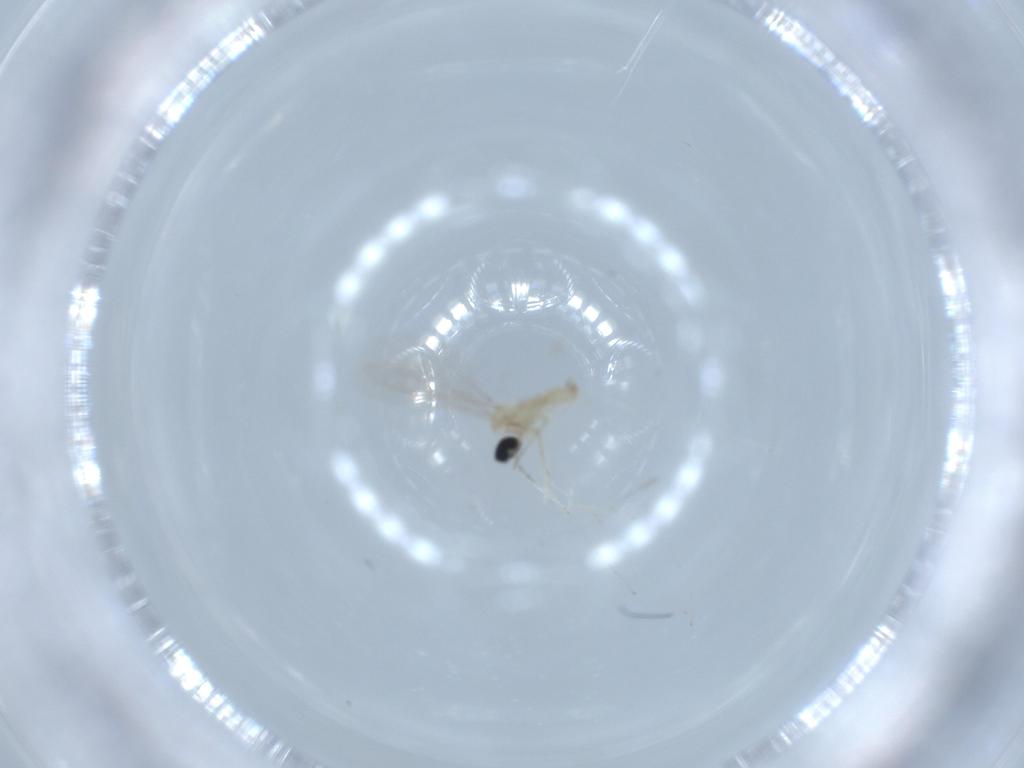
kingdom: Animalia
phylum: Arthropoda
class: Insecta
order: Diptera
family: Cecidomyiidae
